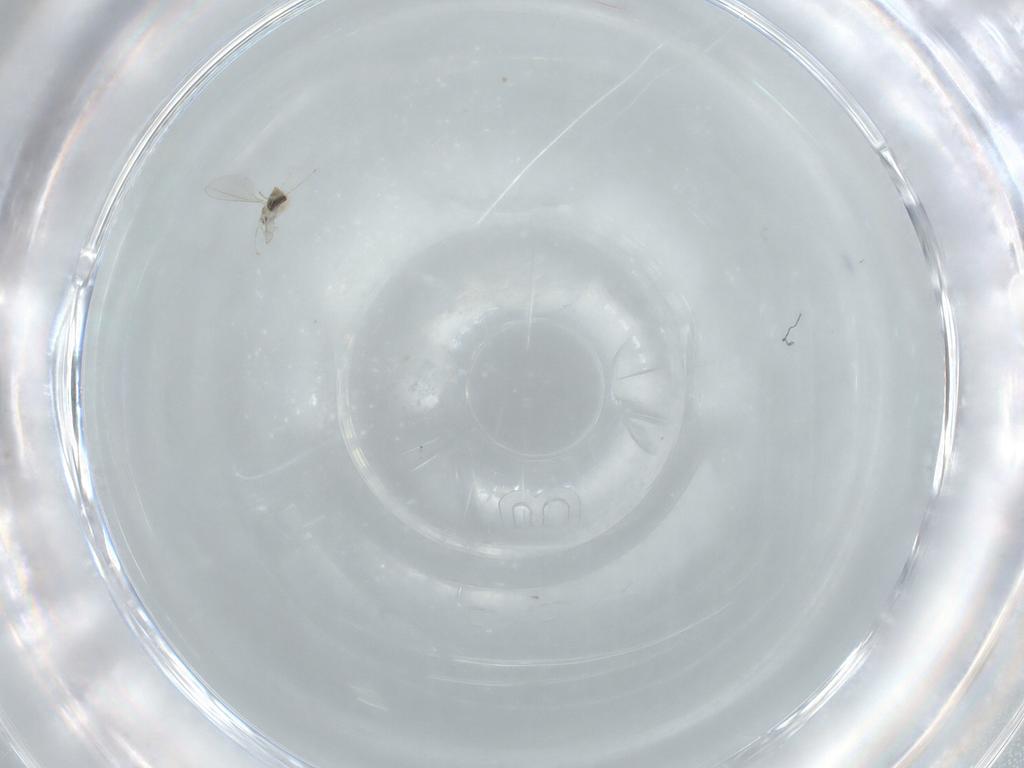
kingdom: Animalia
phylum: Arthropoda
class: Insecta
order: Diptera
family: Cecidomyiidae
